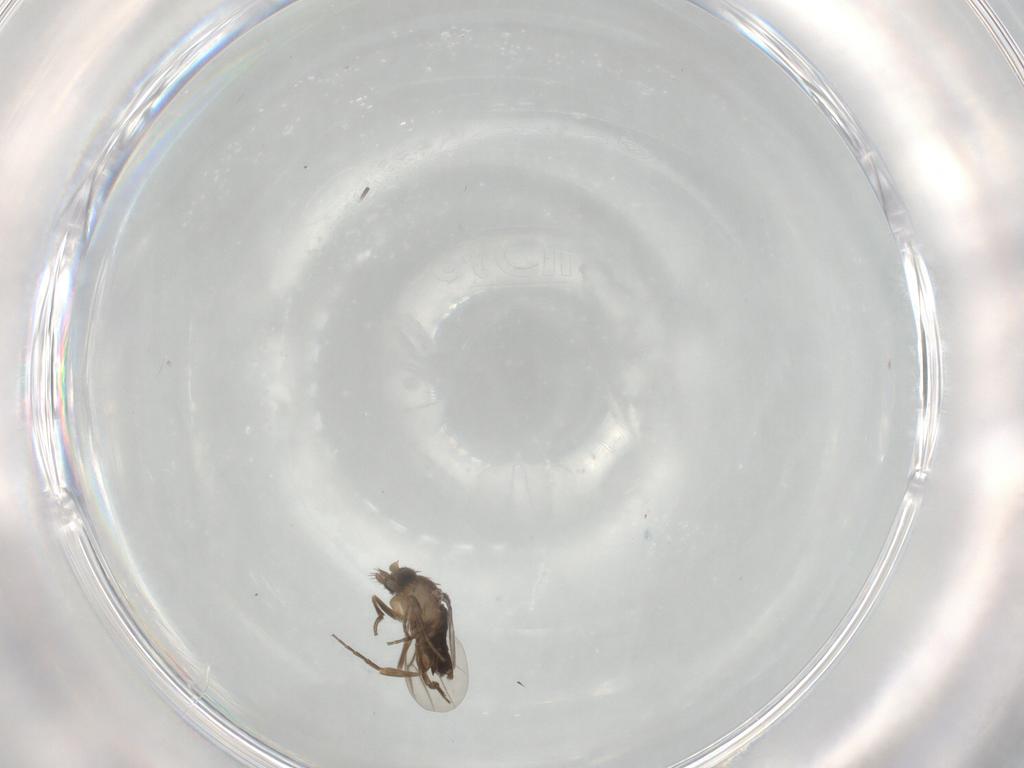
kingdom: Animalia
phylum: Arthropoda
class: Insecta
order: Diptera
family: Phoridae
